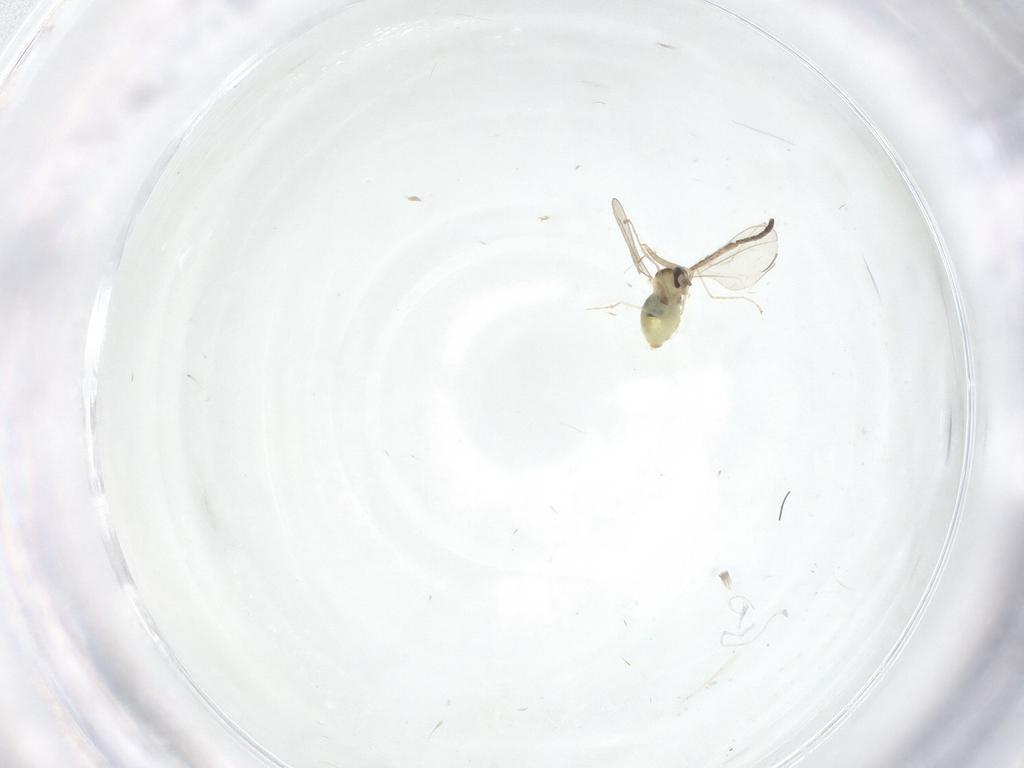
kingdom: Animalia
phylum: Arthropoda
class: Insecta
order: Diptera
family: Cecidomyiidae
